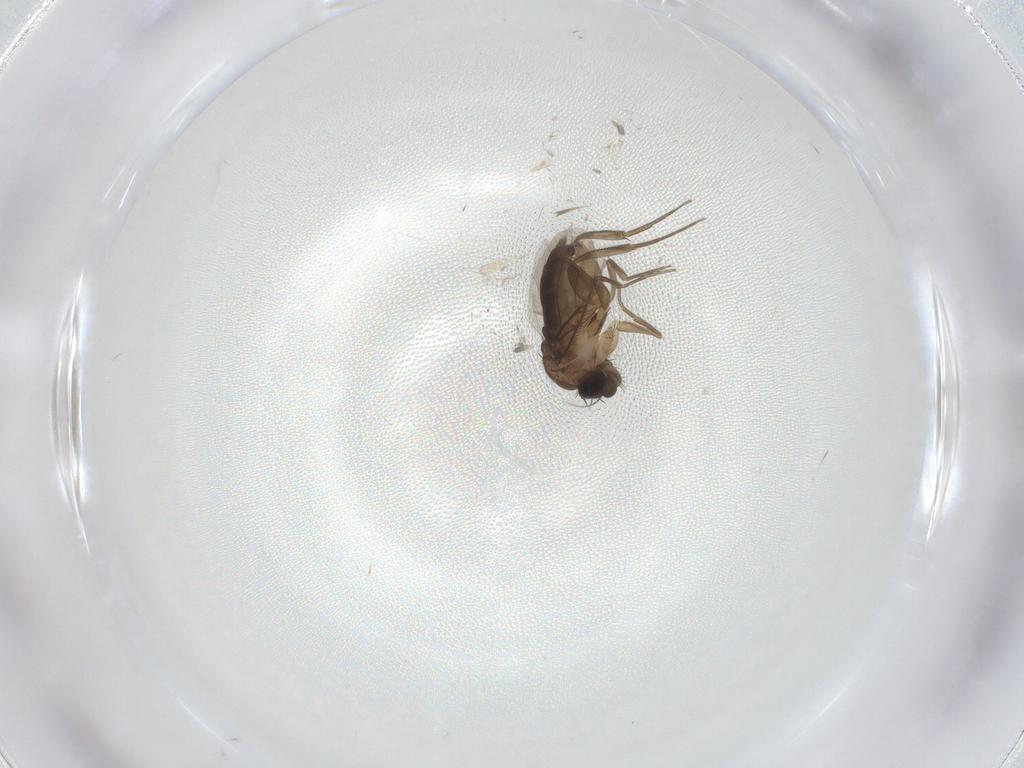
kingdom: Animalia
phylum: Arthropoda
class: Insecta
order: Diptera
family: Phoridae
